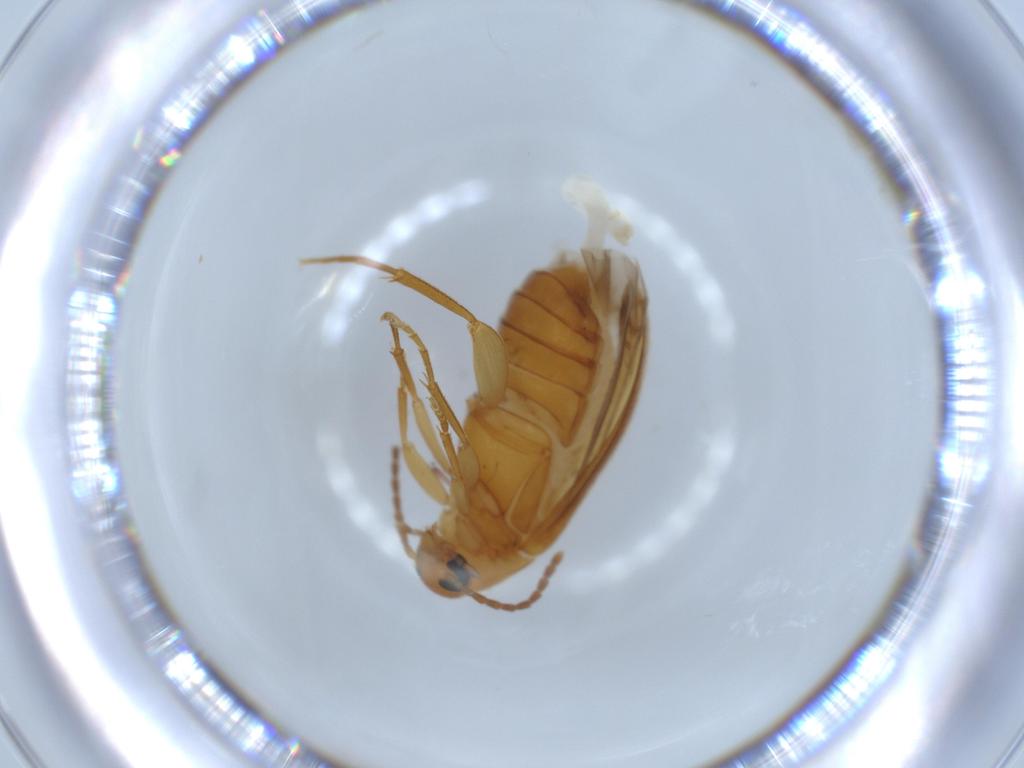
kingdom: Animalia
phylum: Arthropoda
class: Insecta
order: Coleoptera
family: Scraptiidae
